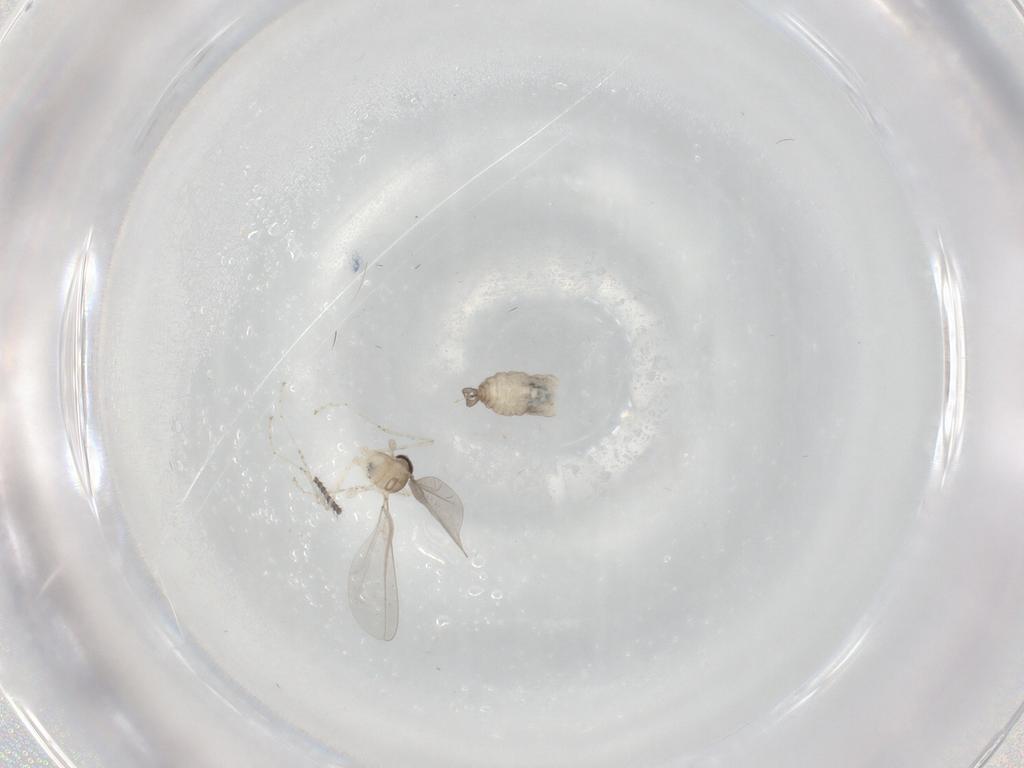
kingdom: Animalia
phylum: Arthropoda
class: Insecta
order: Diptera
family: Ditomyiidae
